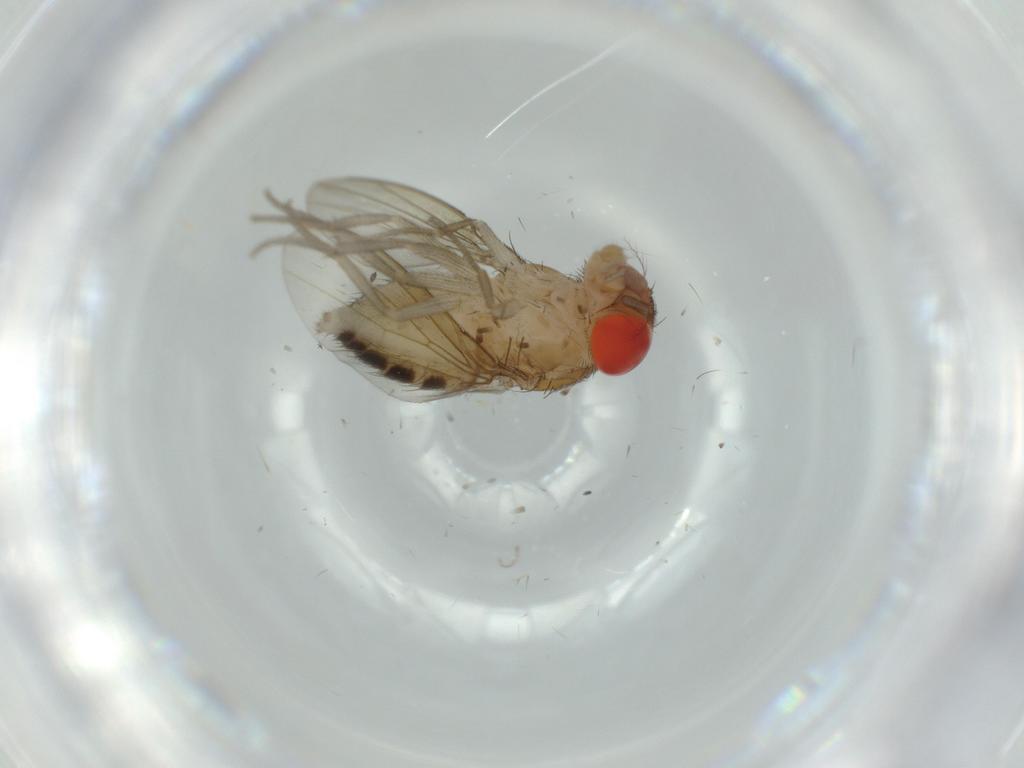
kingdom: Animalia
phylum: Arthropoda
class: Insecta
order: Diptera
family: Drosophilidae
